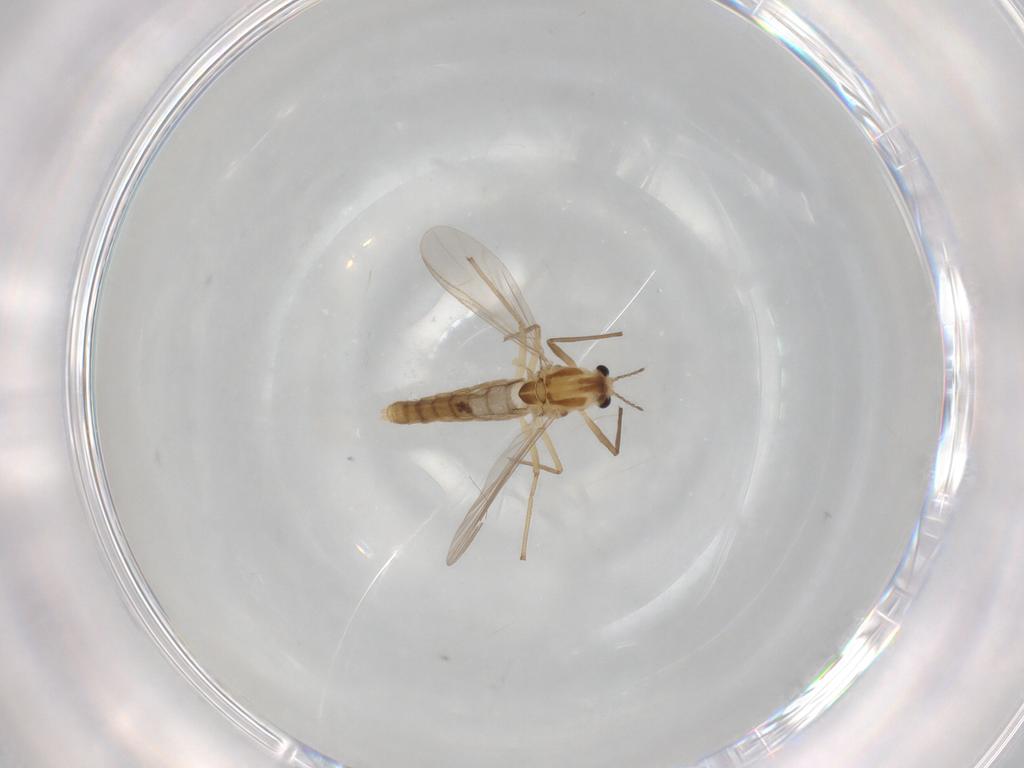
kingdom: Animalia
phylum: Arthropoda
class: Insecta
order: Diptera
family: Chironomidae
